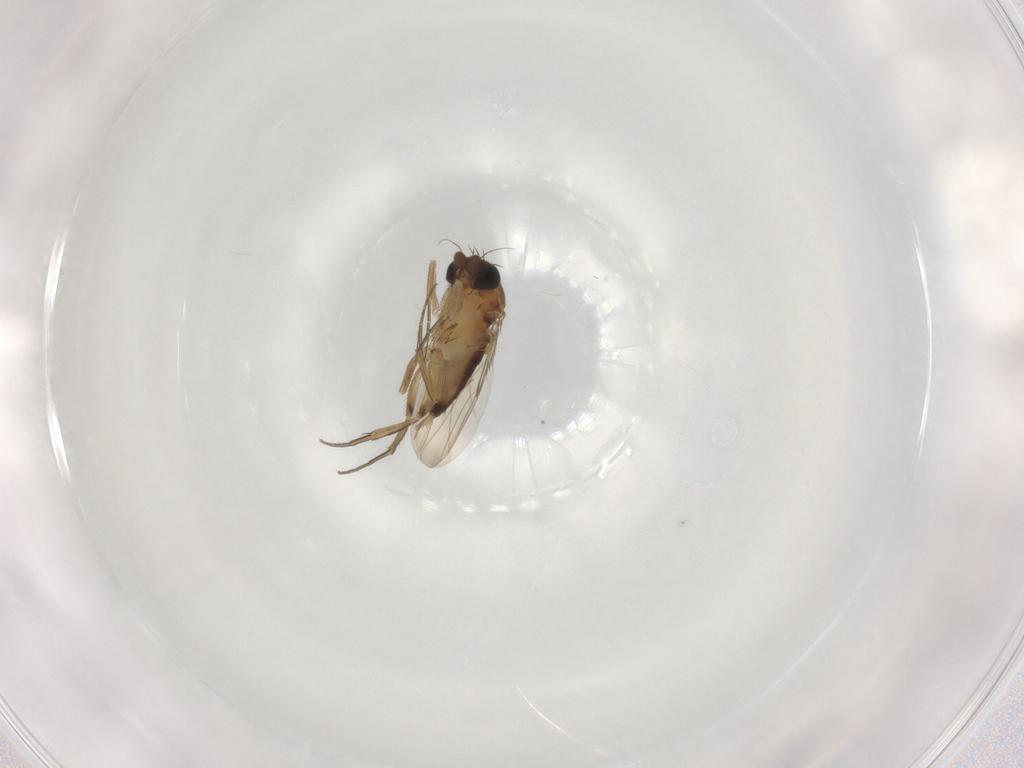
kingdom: Animalia
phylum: Arthropoda
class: Insecta
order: Diptera
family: Phoridae
